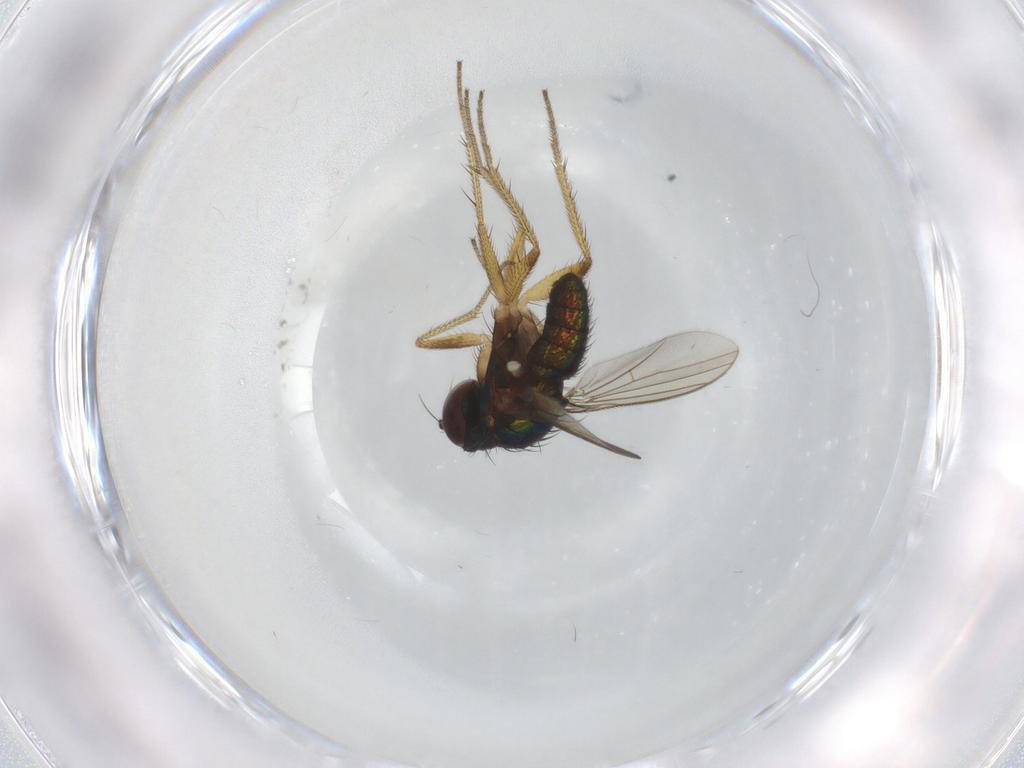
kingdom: Animalia
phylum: Arthropoda
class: Insecta
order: Diptera
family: Dolichopodidae
